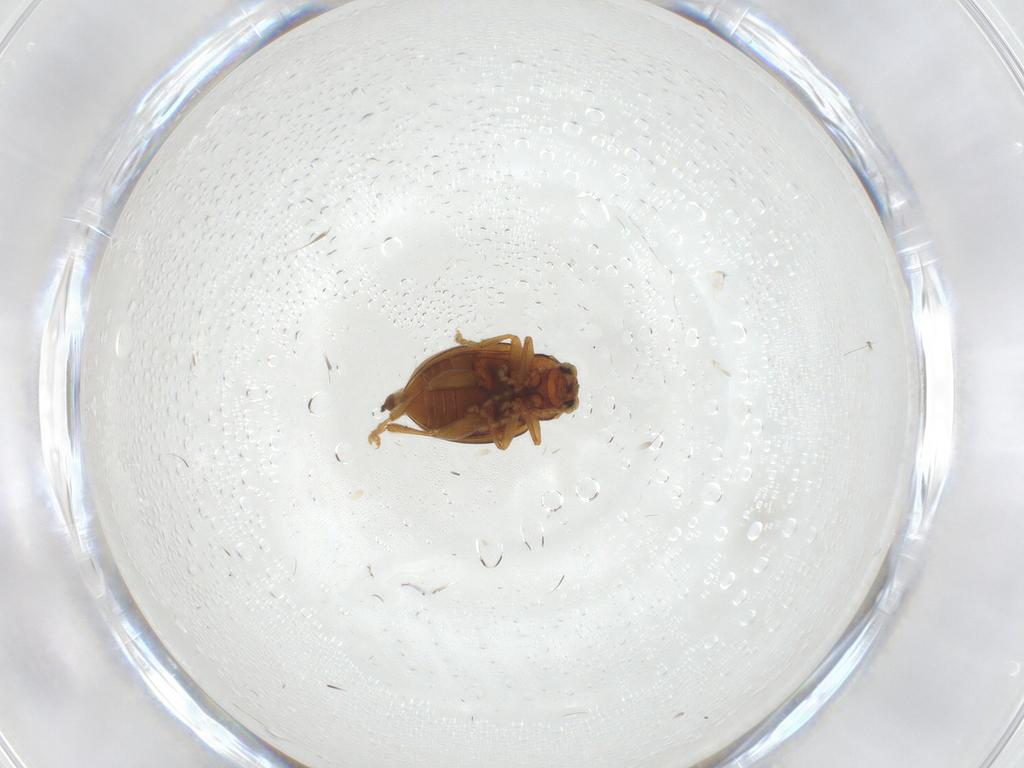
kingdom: Animalia
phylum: Arthropoda
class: Insecta
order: Coleoptera
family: Chrysomelidae
